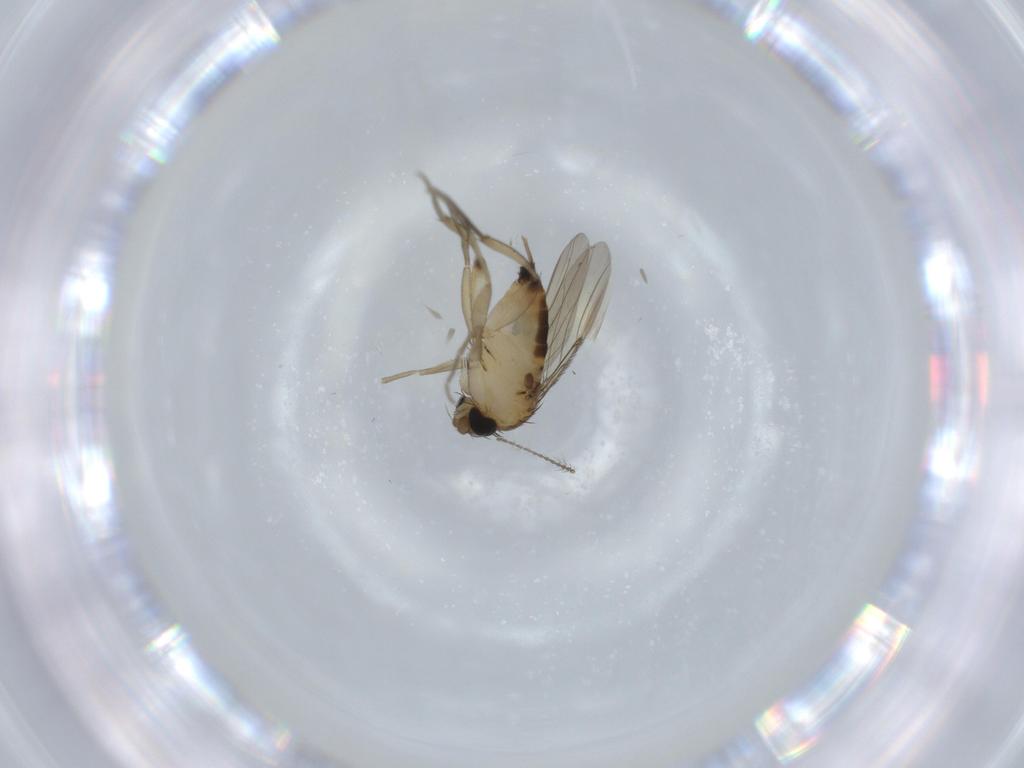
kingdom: Animalia
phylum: Arthropoda
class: Insecta
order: Diptera
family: Phoridae
